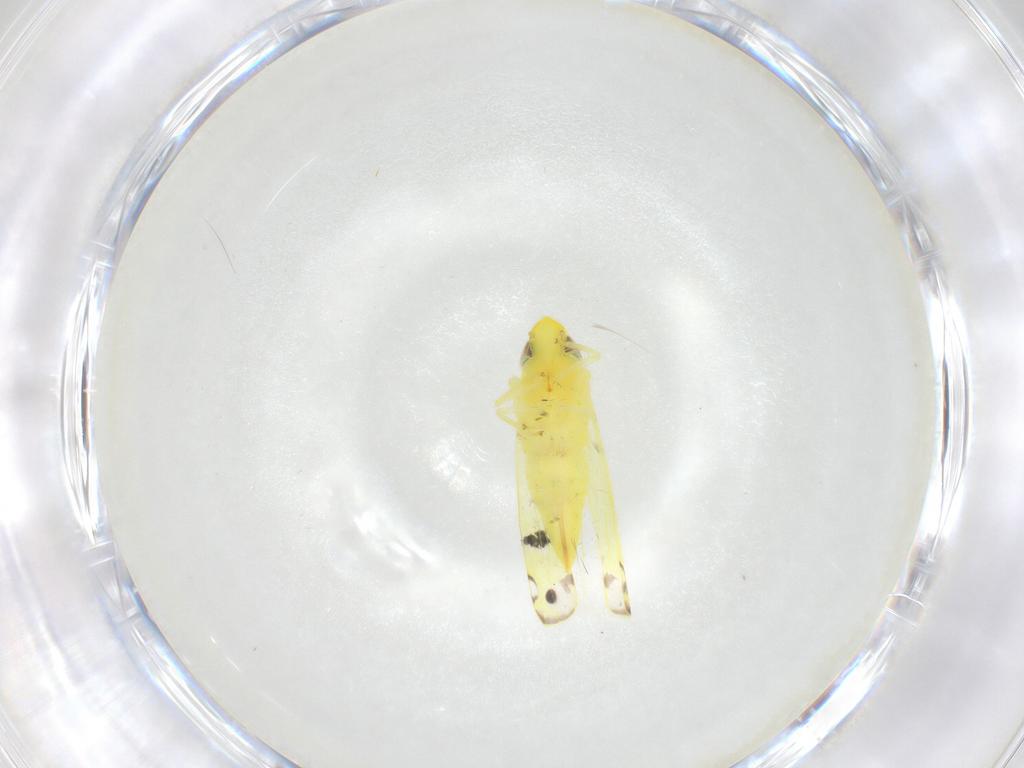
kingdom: Animalia
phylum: Arthropoda
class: Insecta
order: Hemiptera
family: Cicadellidae
